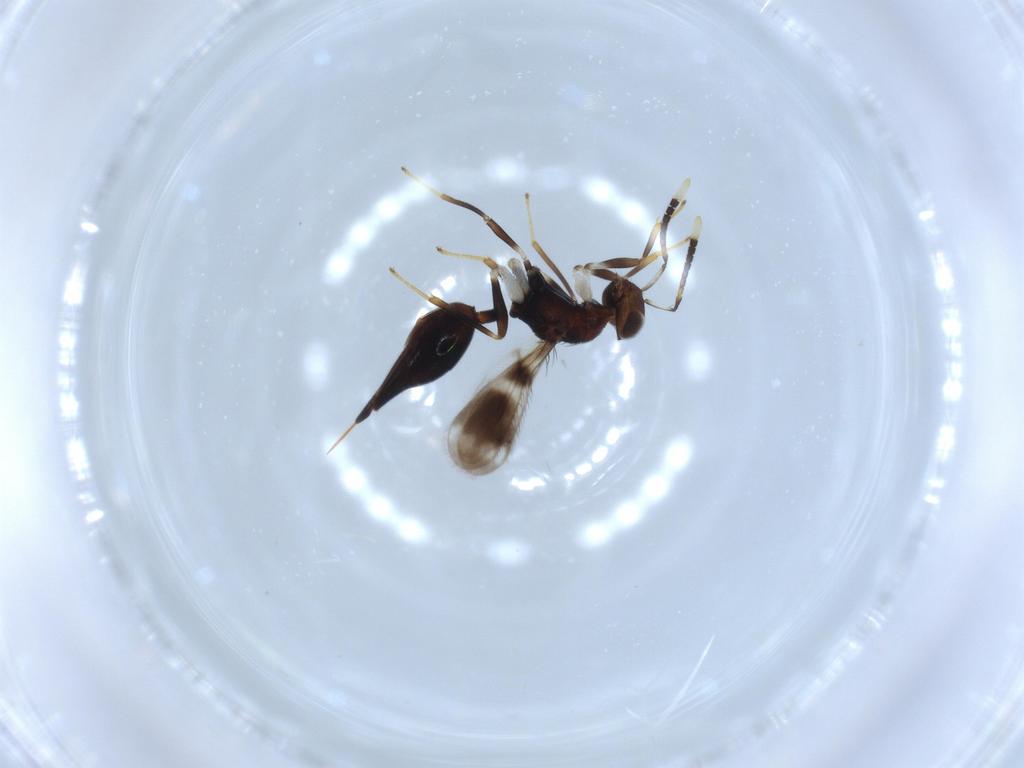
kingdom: Animalia
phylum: Arthropoda
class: Insecta
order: Hymenoptera
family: Diparidae
